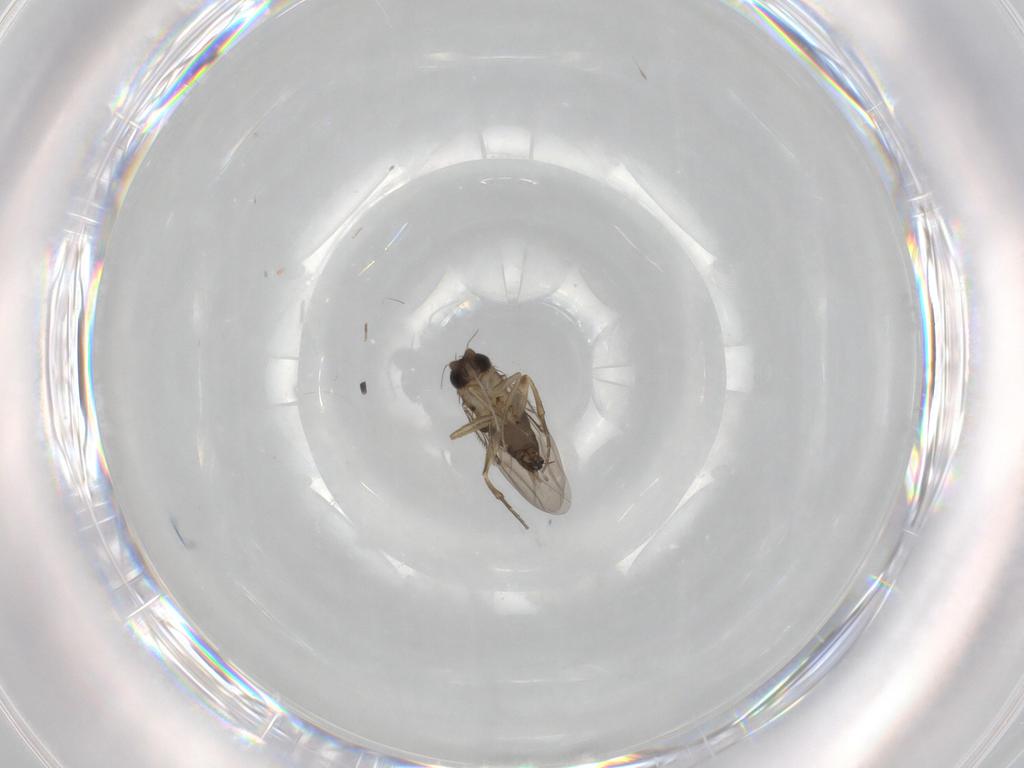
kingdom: Animalia
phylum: Arthropoda
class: Insecta
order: Diptera
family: Cecidomyiidae
